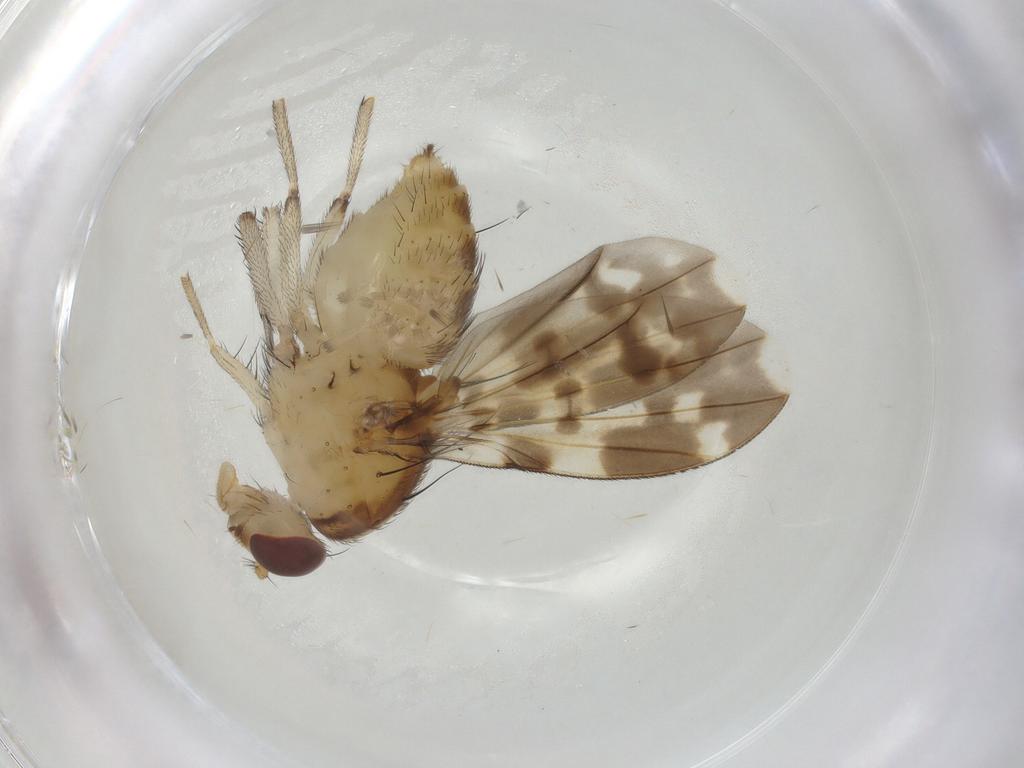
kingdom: Animalia
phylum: Arthropoda
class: Insecta
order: Psocodea
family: Liposcelididae
